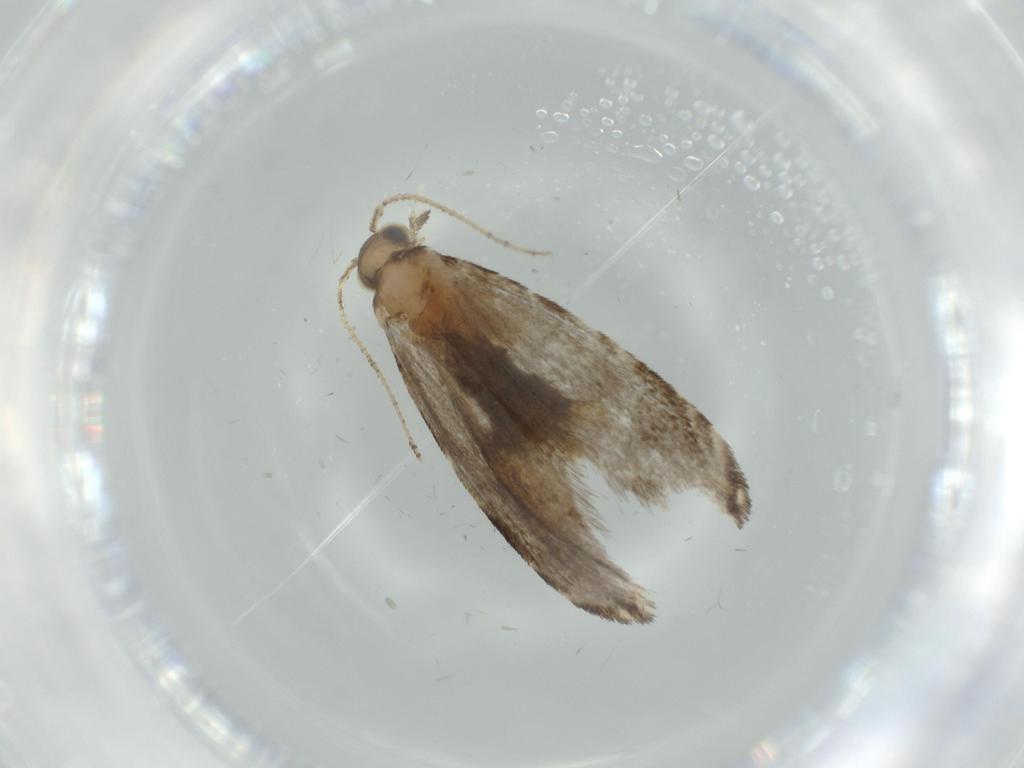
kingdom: Animalia
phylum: Arthropoda
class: Insecta
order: Lepidoptera
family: Tineidae
